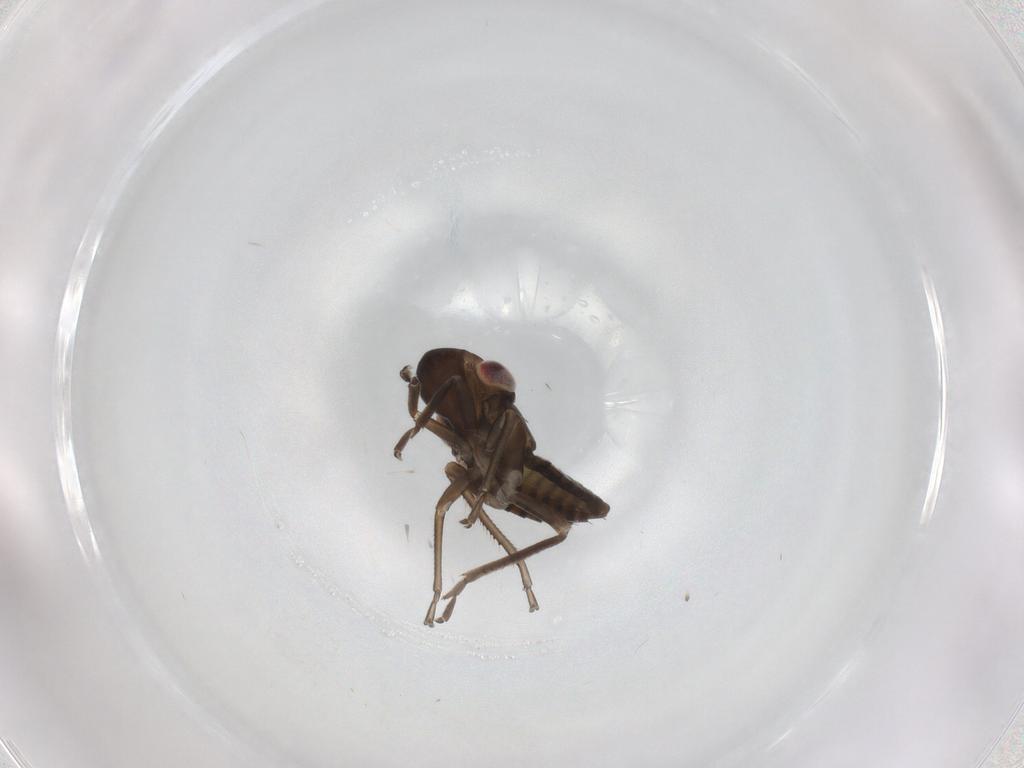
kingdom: Animalia
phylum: Arthropoda
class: Insecta
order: Hemiptera
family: Cicadellidae
